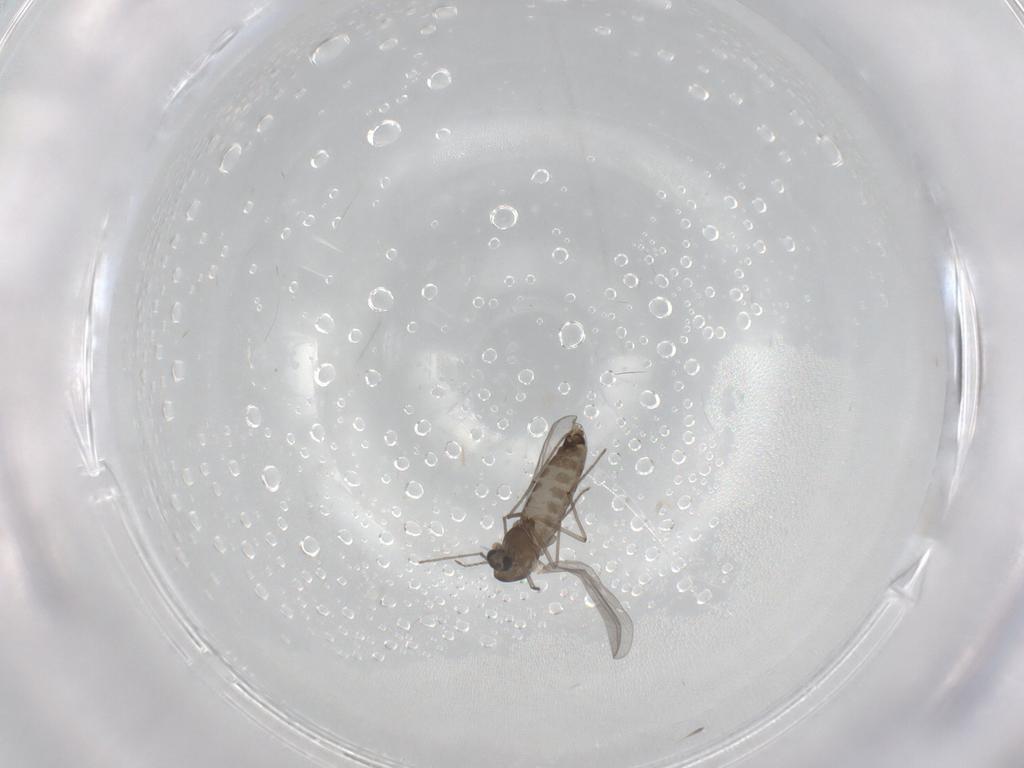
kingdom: Animalia
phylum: Arthropoda
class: Insecta
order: Diptera
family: Chironomidae
